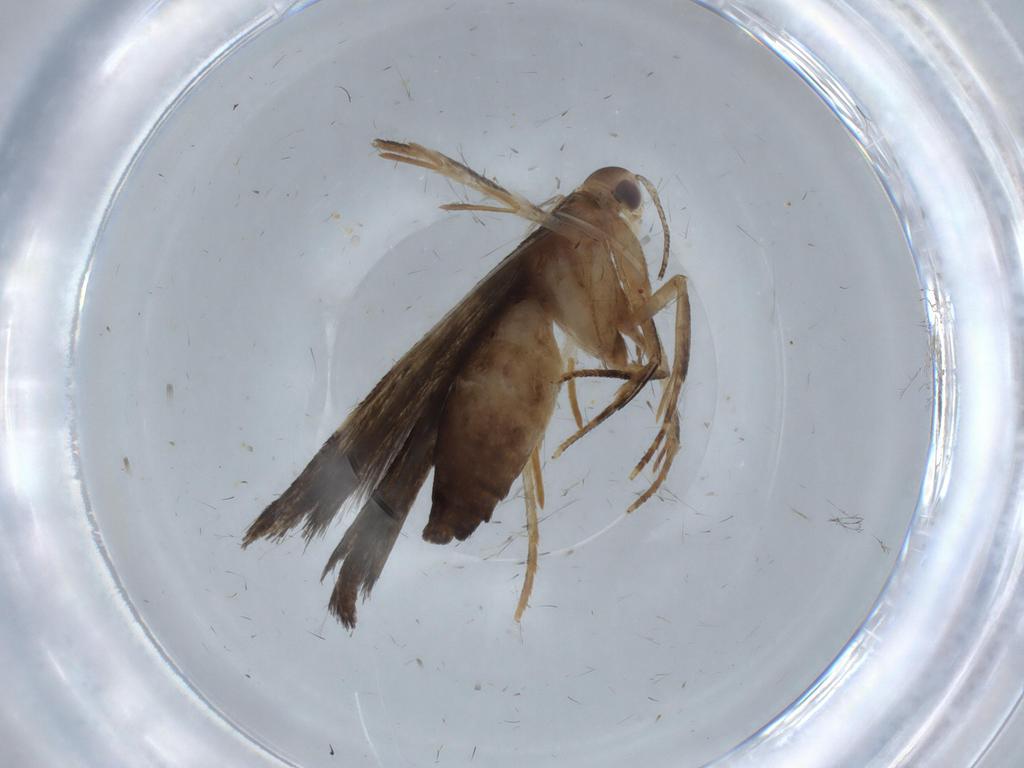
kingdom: Animalia
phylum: Arthropoda
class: Insecta
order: Lepidoptera
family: Cosmopterigidae
